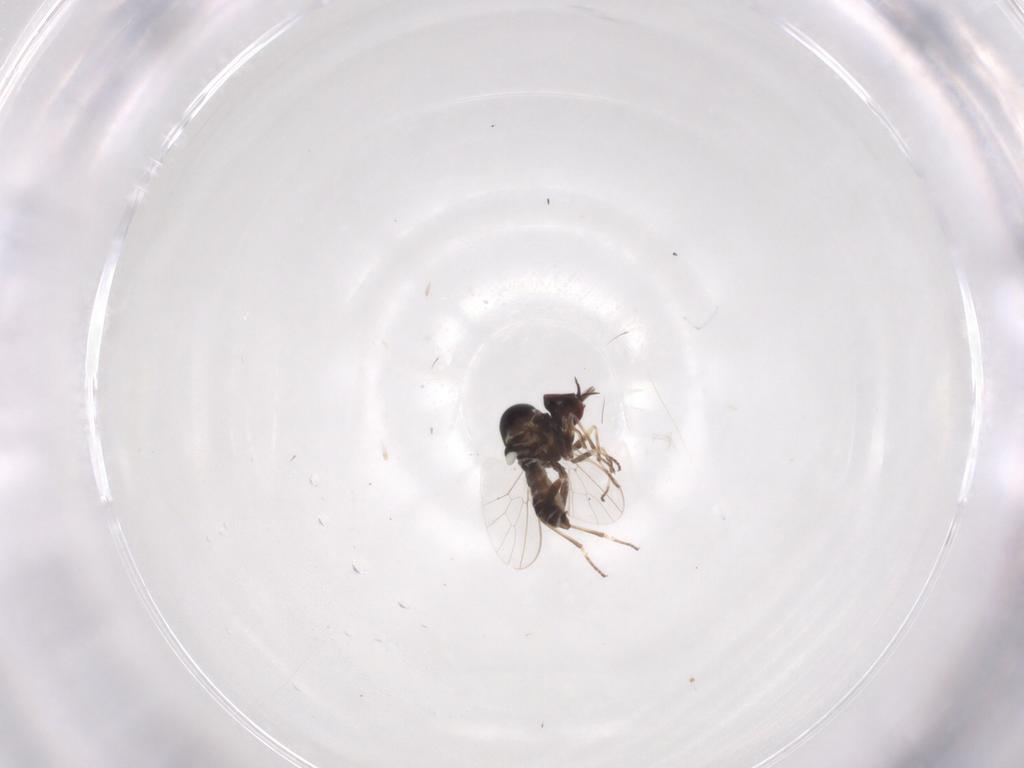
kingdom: Animalia
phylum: Arthropoda
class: Insecta
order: Diptera
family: Bombyliidae
